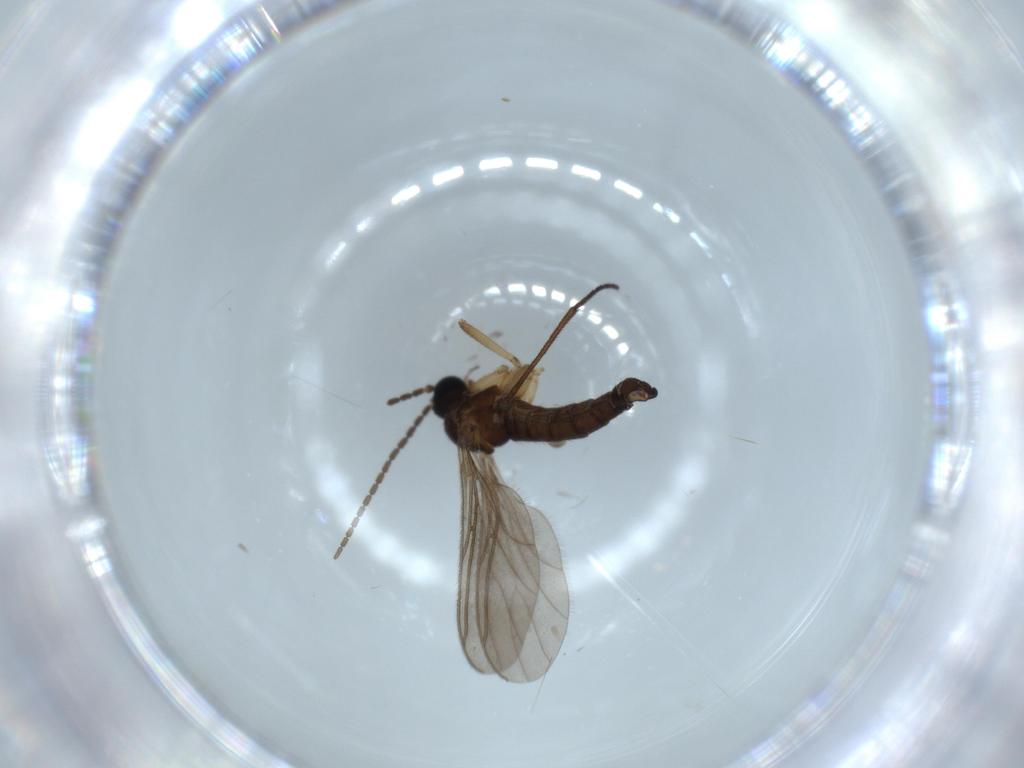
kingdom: Animalia
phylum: Arthropoda
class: Insecta
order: Diptera
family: Sciaridae
